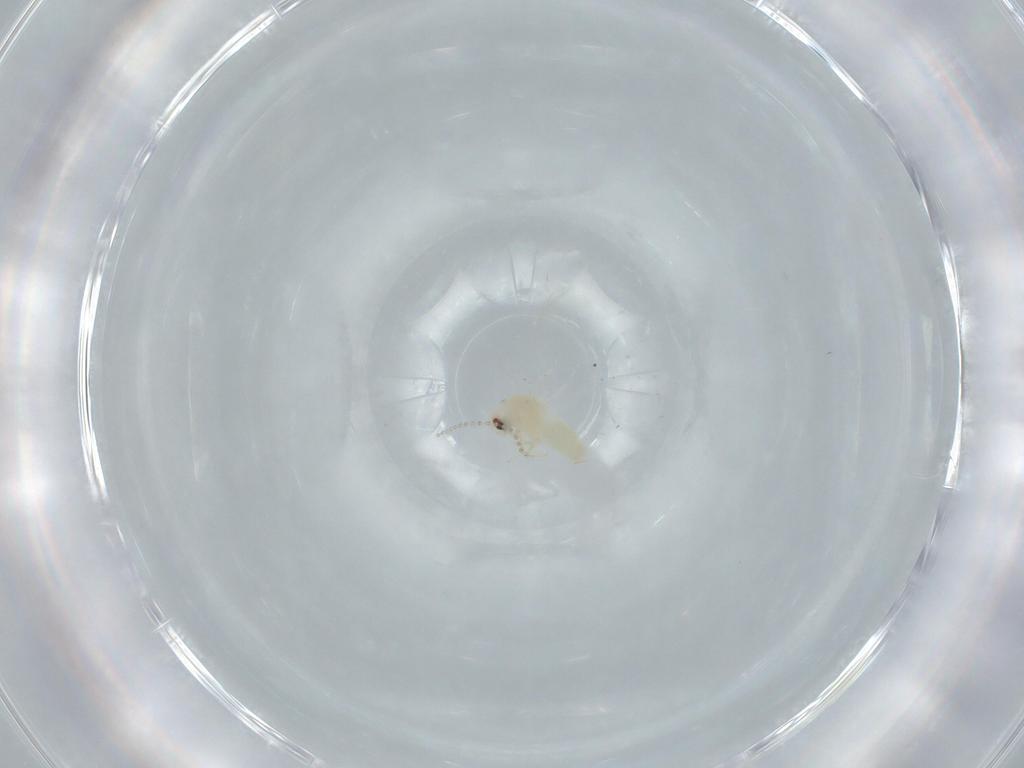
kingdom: Animalia
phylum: Arthropoda
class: Insecta
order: Hemiptera
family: Aleyrodidae
